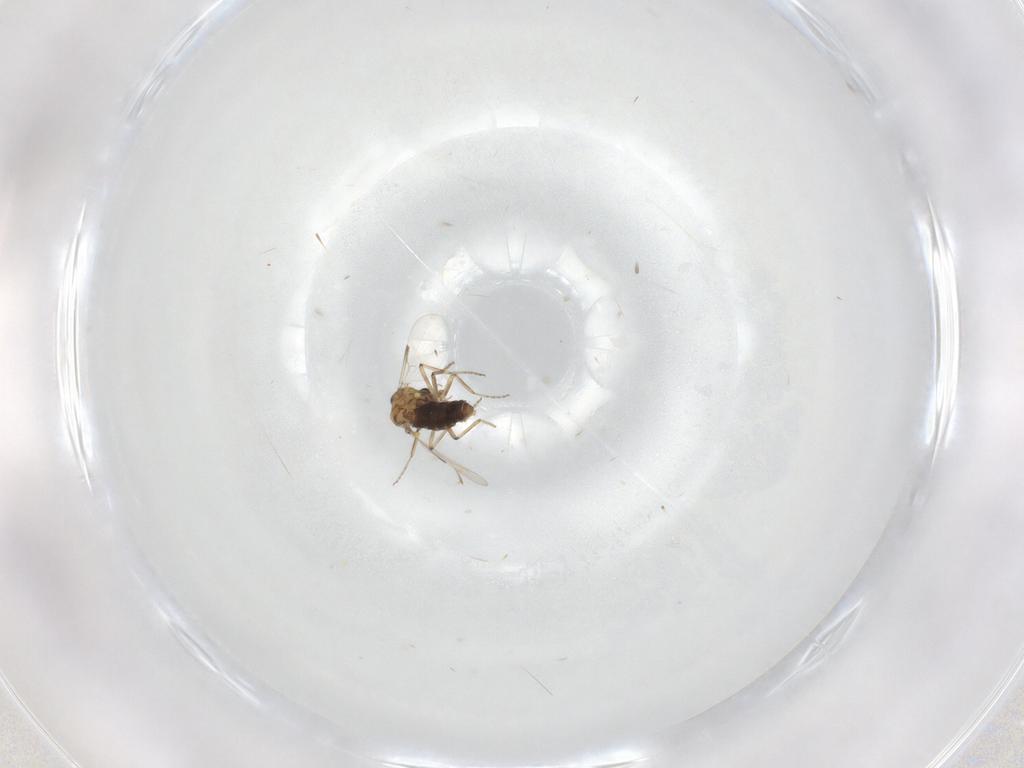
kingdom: Animalia
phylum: Arthropoda
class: Insecta
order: Diptera
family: Ceratopogonidae
